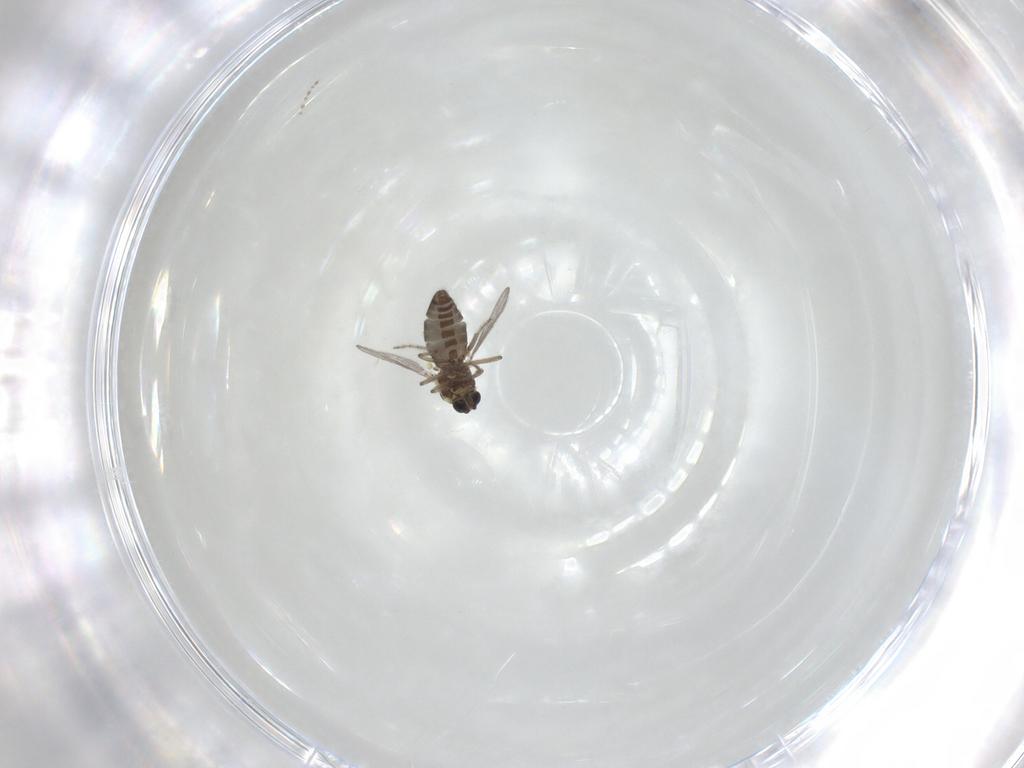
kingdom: Animalia
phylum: Arthropoda
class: Insecta
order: Diptera
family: Ceratopogonidae
